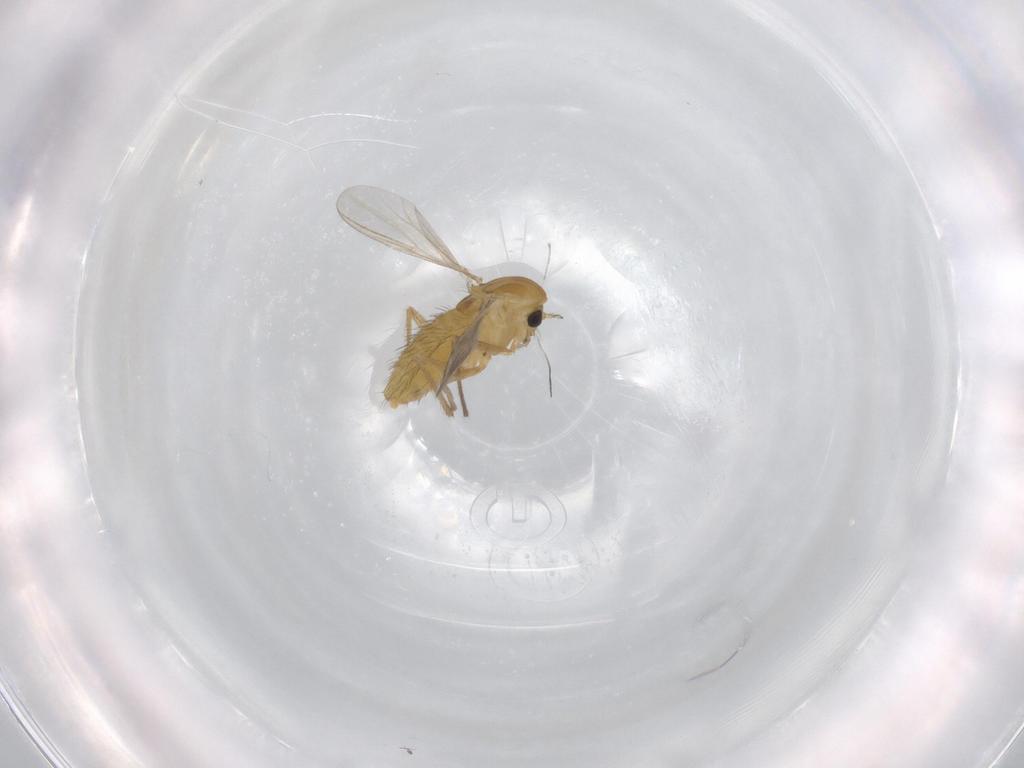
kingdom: Animalia
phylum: Arthropoda
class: Insecta
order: Diptera
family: Chironomidae
